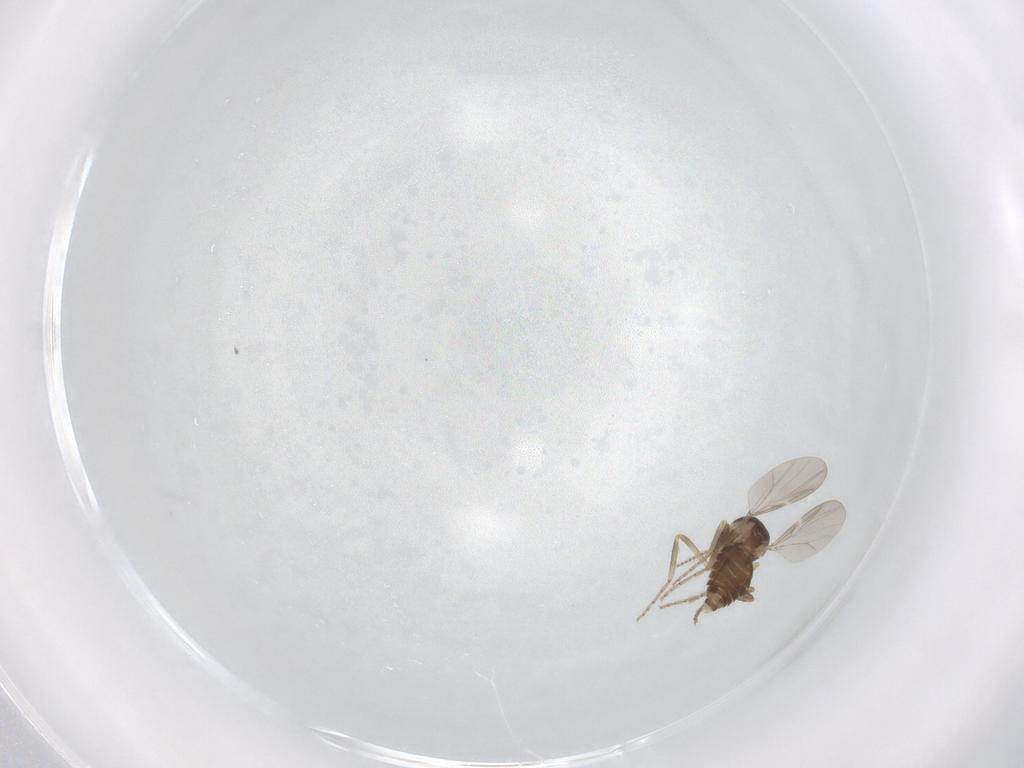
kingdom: Animalia
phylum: Arthropoda
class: Insecta
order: Diptera
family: Ceratopogonidae
